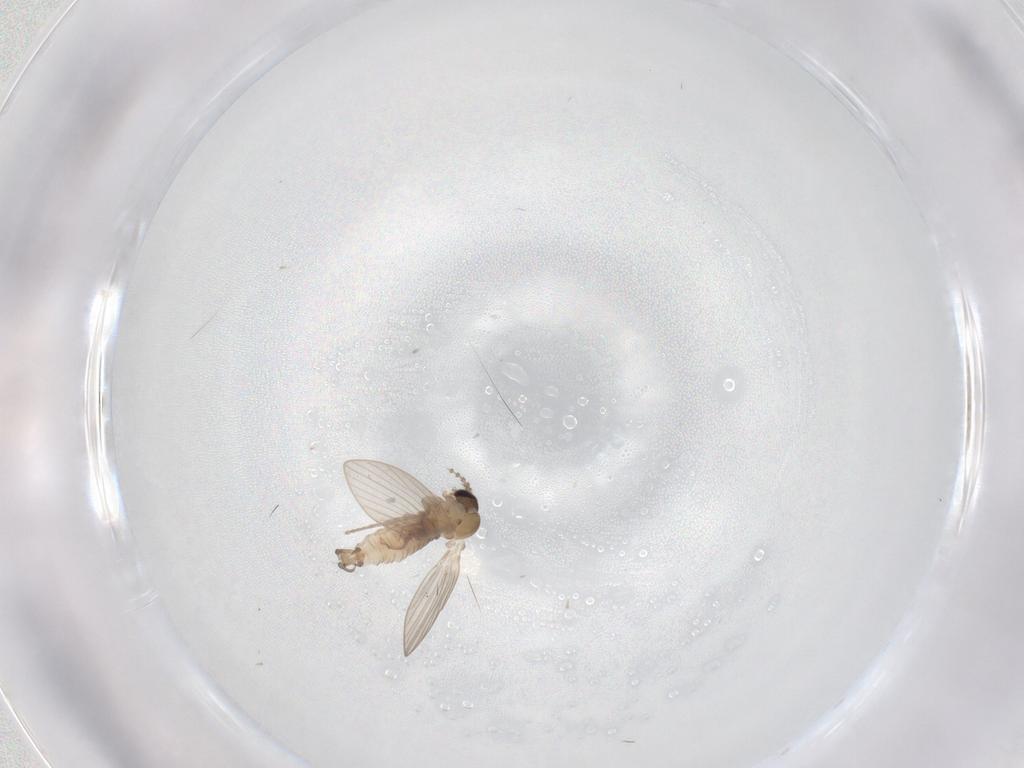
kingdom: Animalia
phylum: Arthropoda
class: Insecta
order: Diptera
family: Psychodidae
